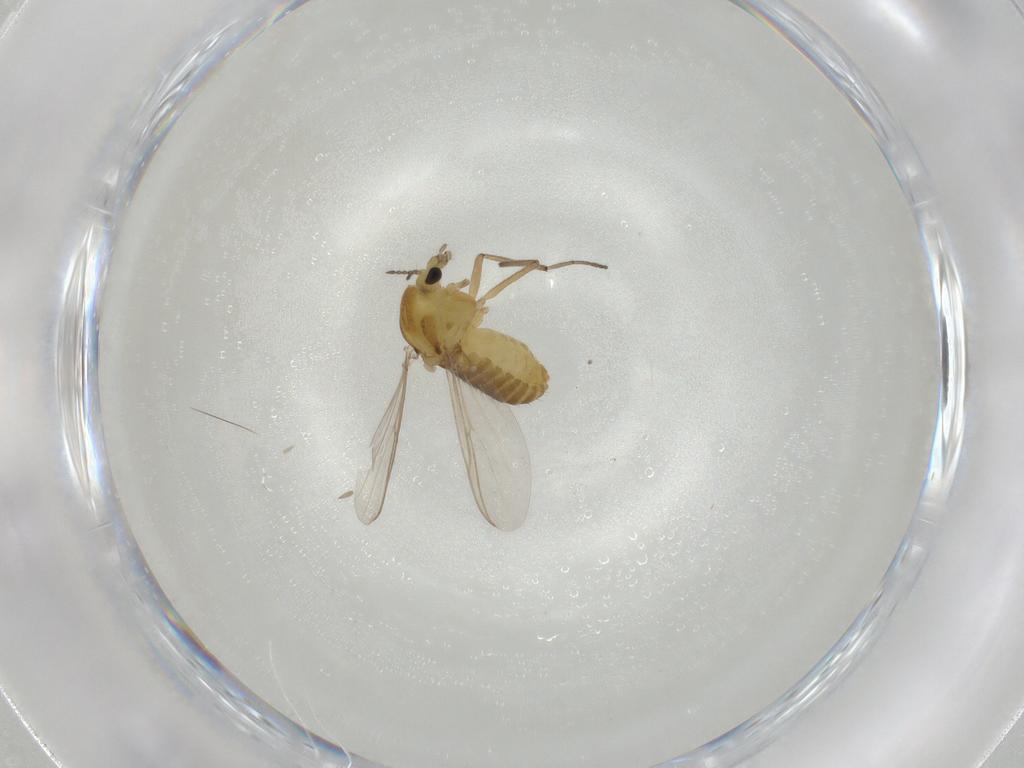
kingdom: Animalia
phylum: Arthropoda
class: Insecta
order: Diptera
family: Chironomidae
